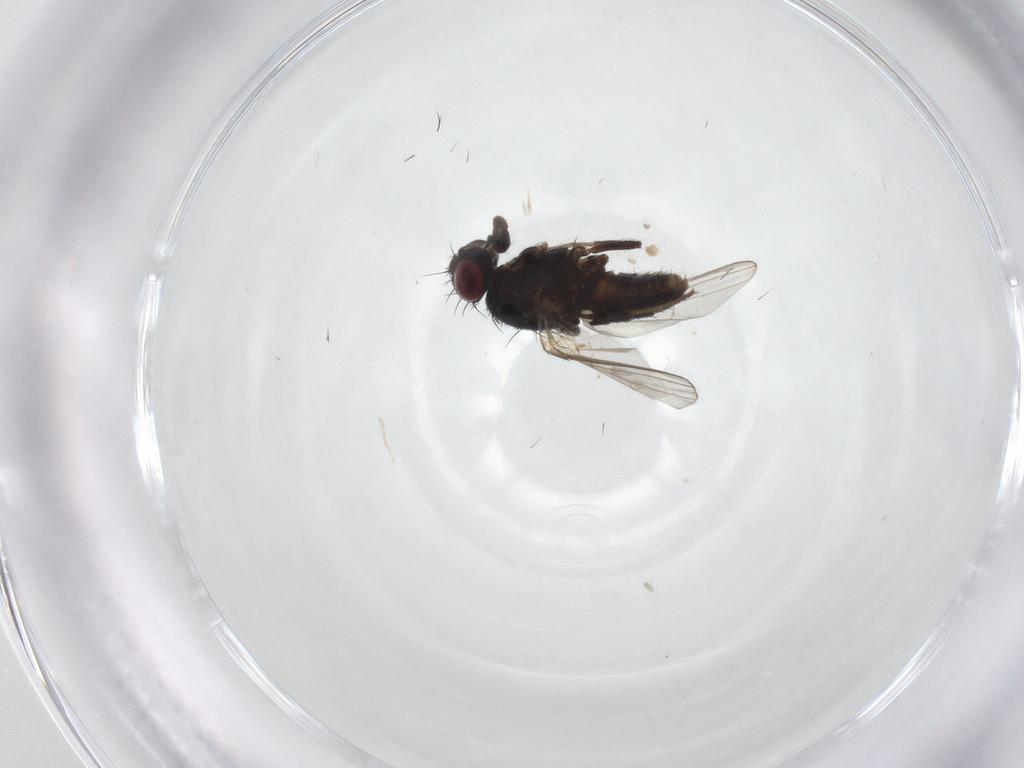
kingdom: Animalia
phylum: Arthropoda
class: Insecta
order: Diptera
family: Carnidae
